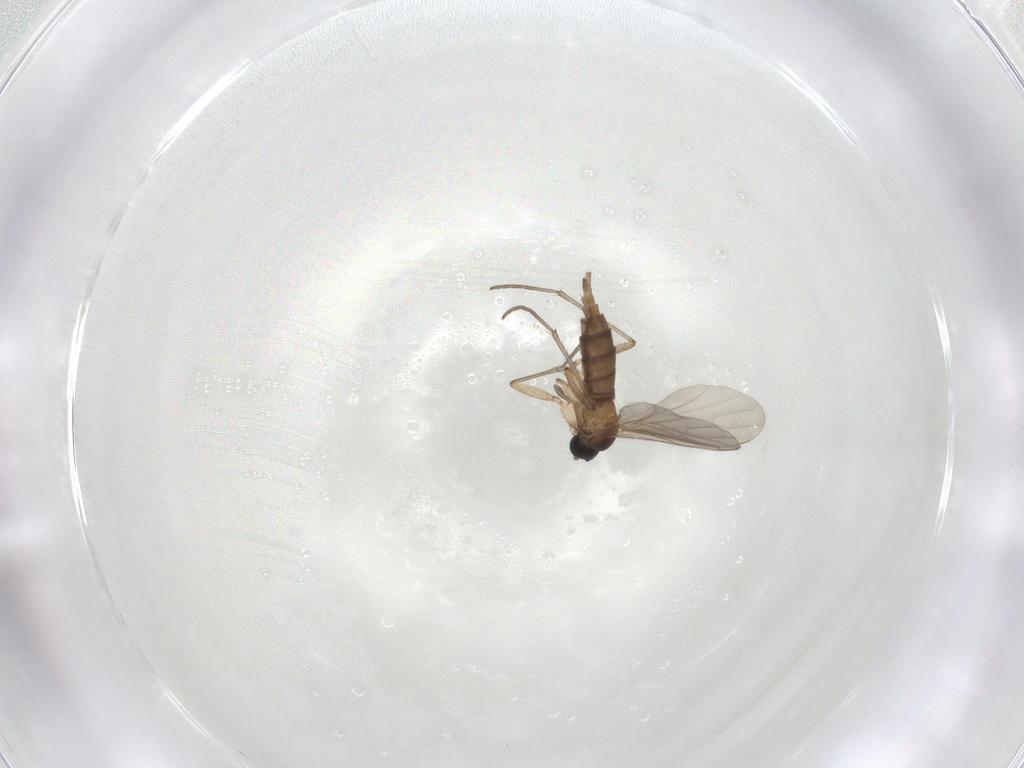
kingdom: Animalia
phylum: Arthropoda
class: Insecta
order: Diptera
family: Sciaridae
